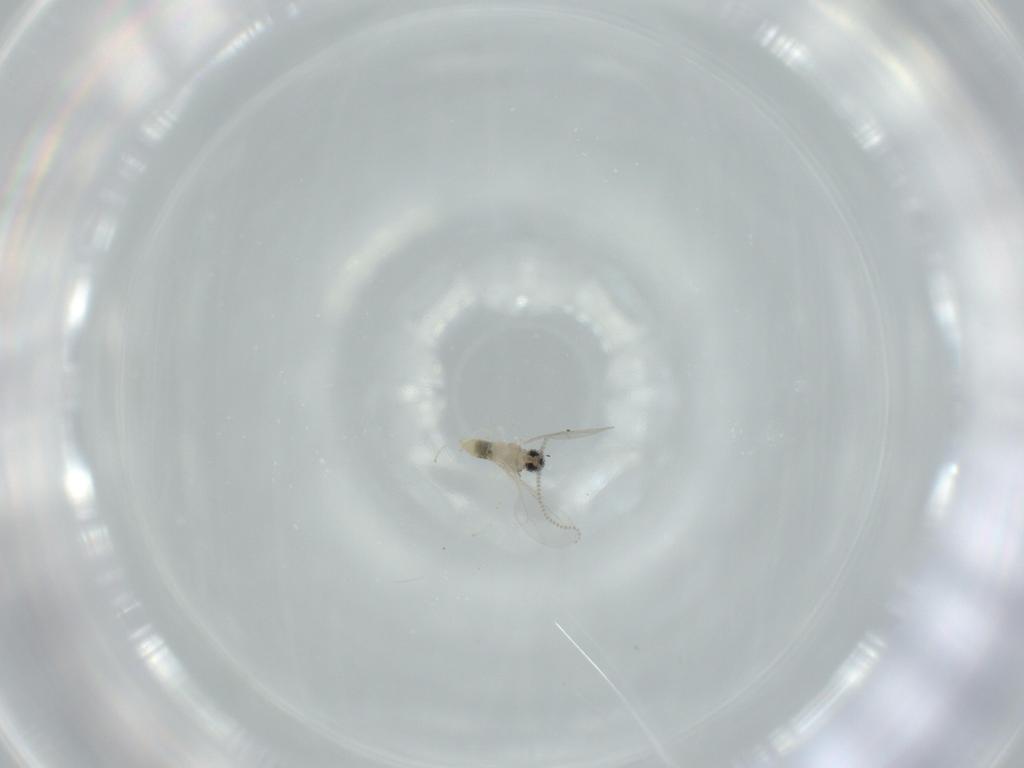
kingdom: Animalia
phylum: Arthropoda
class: Insecta
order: Diptera
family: Cecidomyiidae
